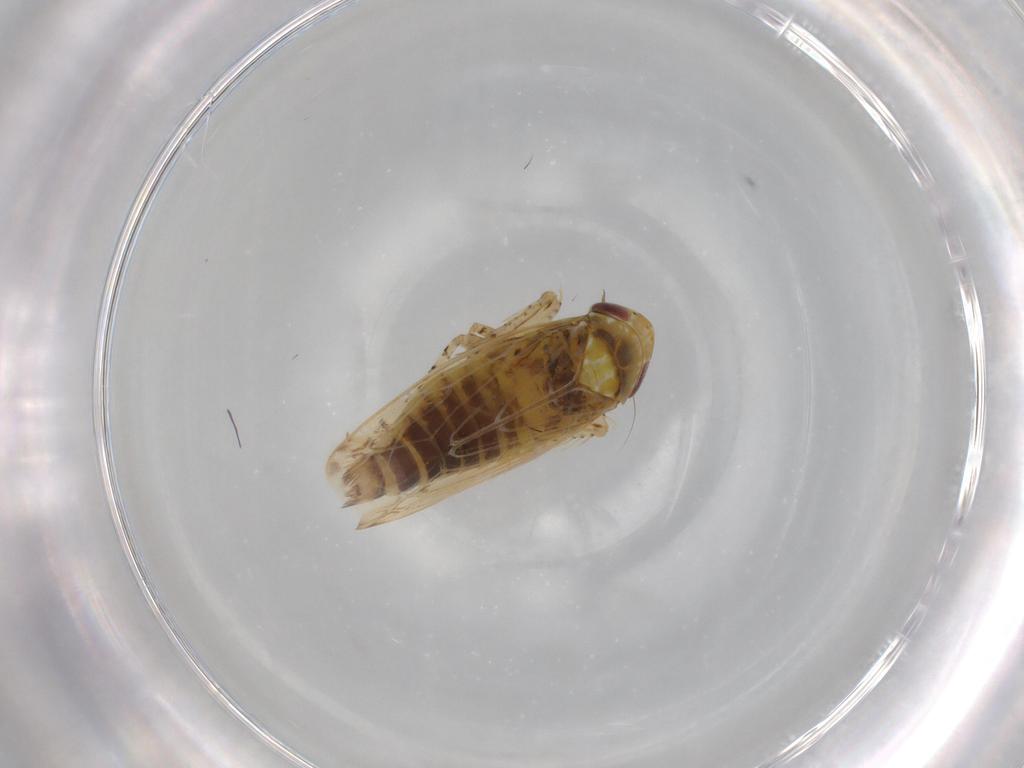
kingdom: Animalia
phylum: Arthropoda
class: Insecta
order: Hemiptera
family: Cicadellidae
